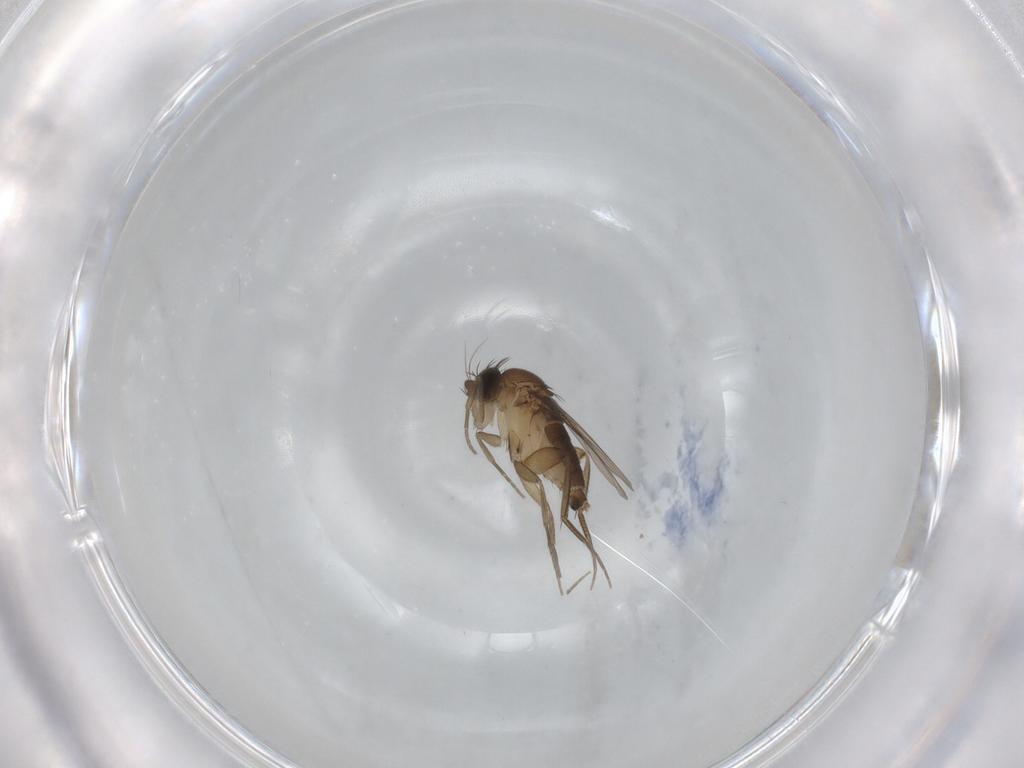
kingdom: Animalia
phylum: Arthropoda
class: Insecta
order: Diptera
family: Phoridae
